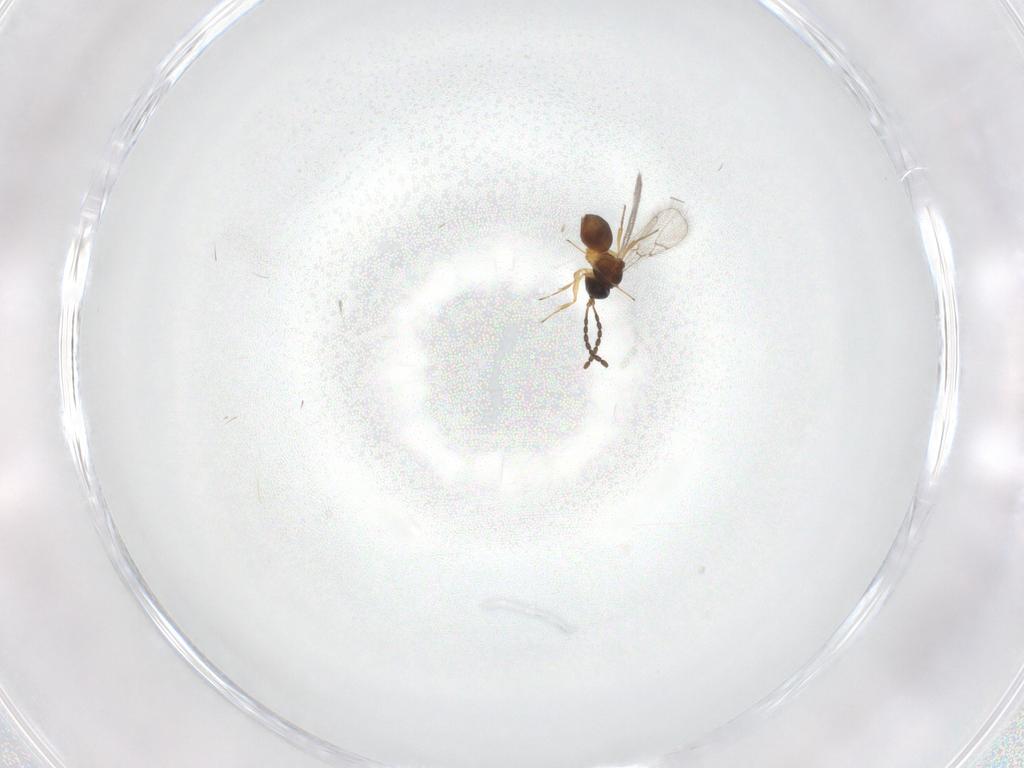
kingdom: Animalia
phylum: Arthropoda
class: Insecta
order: Hymenoptera
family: Figitidae
